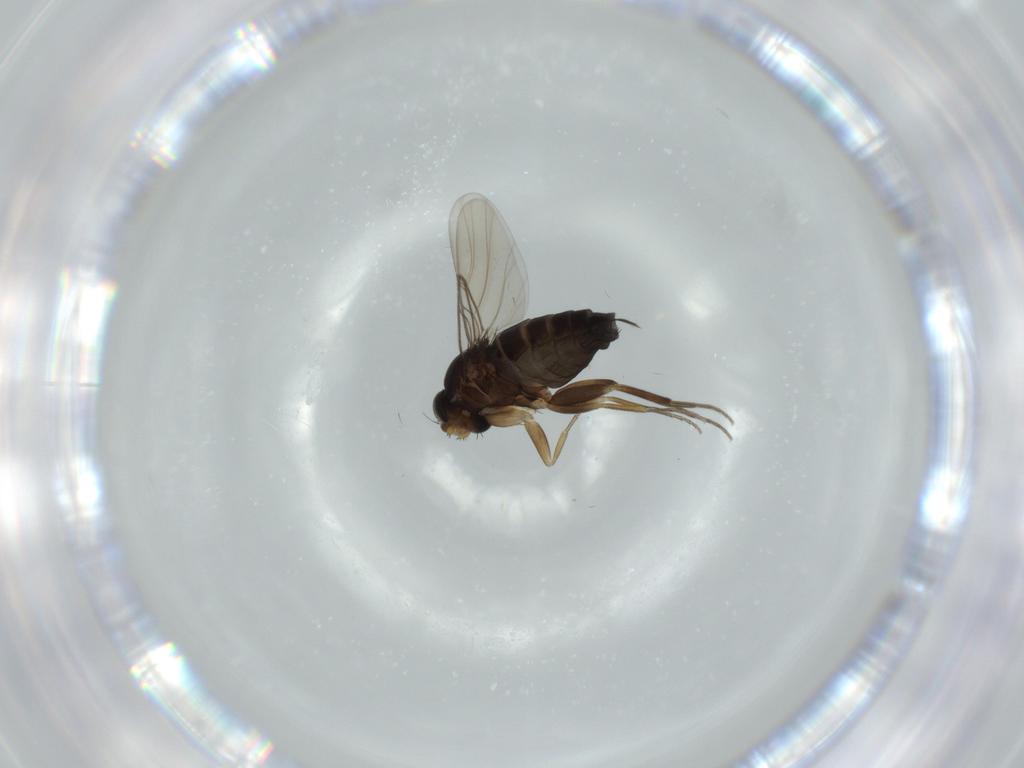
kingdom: Animalia
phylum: Arthropoda
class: Insecta
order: Diptera
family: Phoridae
